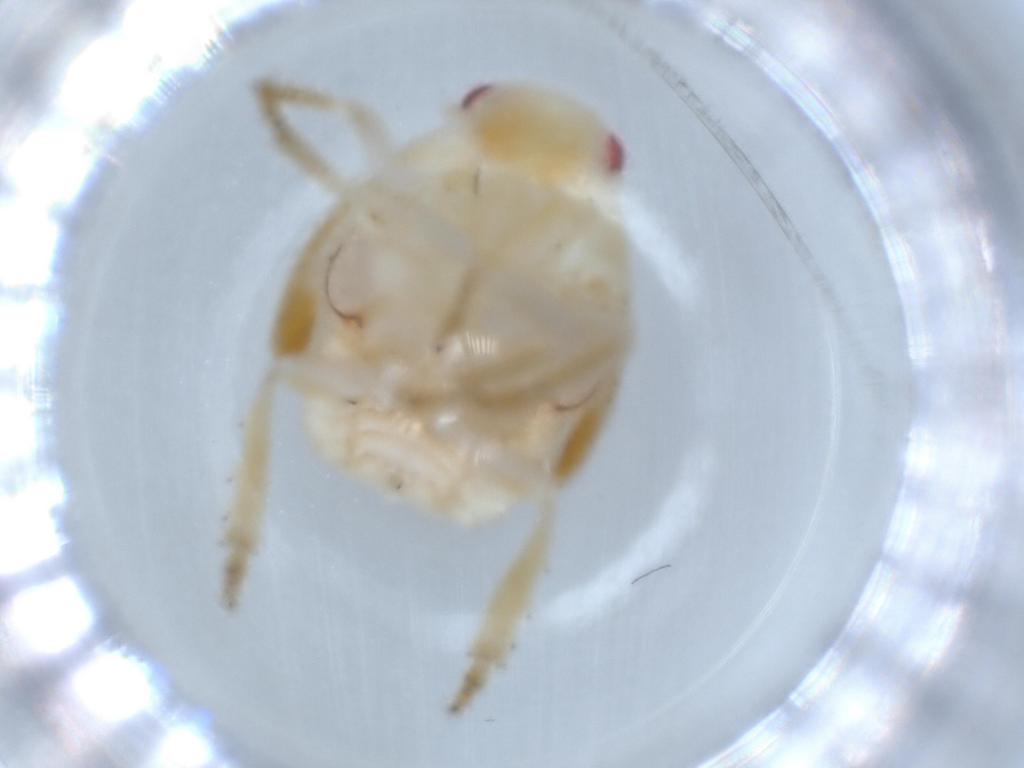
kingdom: Animalia
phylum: Arthropoda
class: Insecta
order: Hemiptera
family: Flatidae
